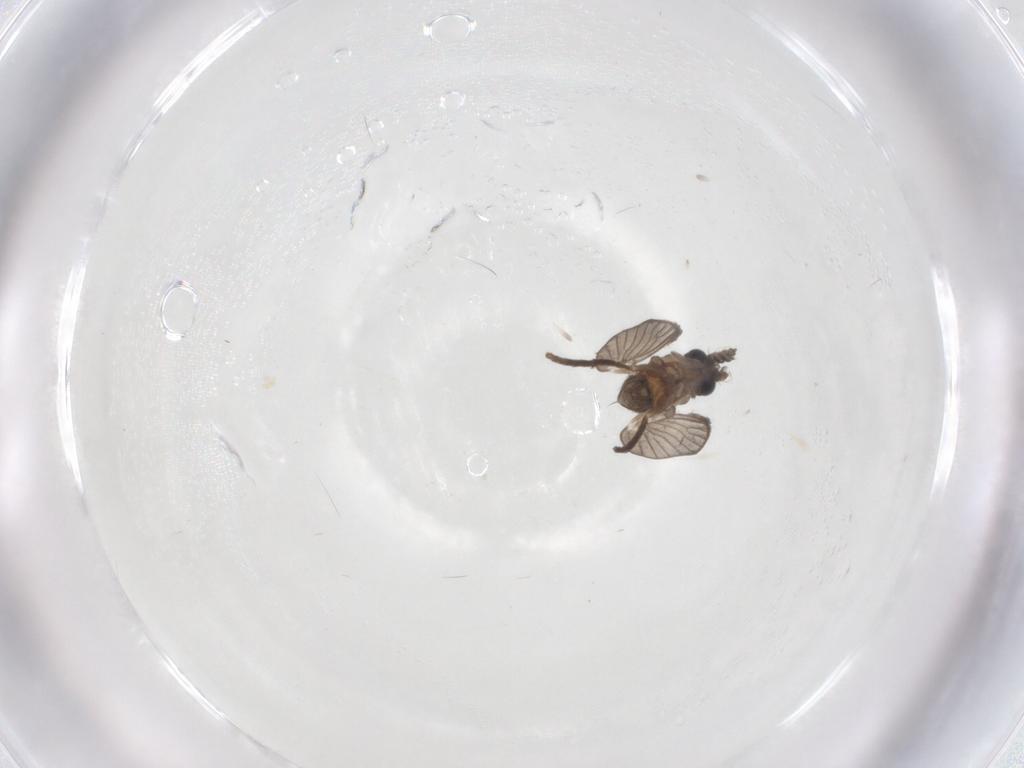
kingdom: Animalia
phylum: Arthropoda
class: Insecta
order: Diptera
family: Psychodidae
